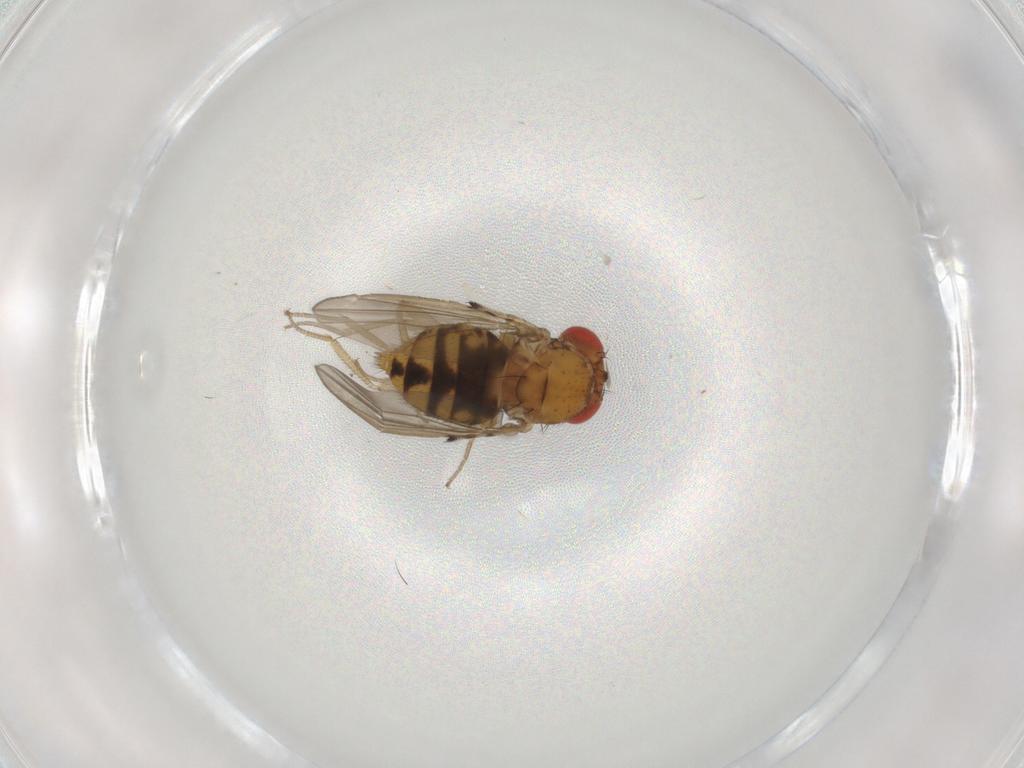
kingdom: Animalia
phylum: Arthropoda
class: Insecta
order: Diptera
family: Drosophilidae
